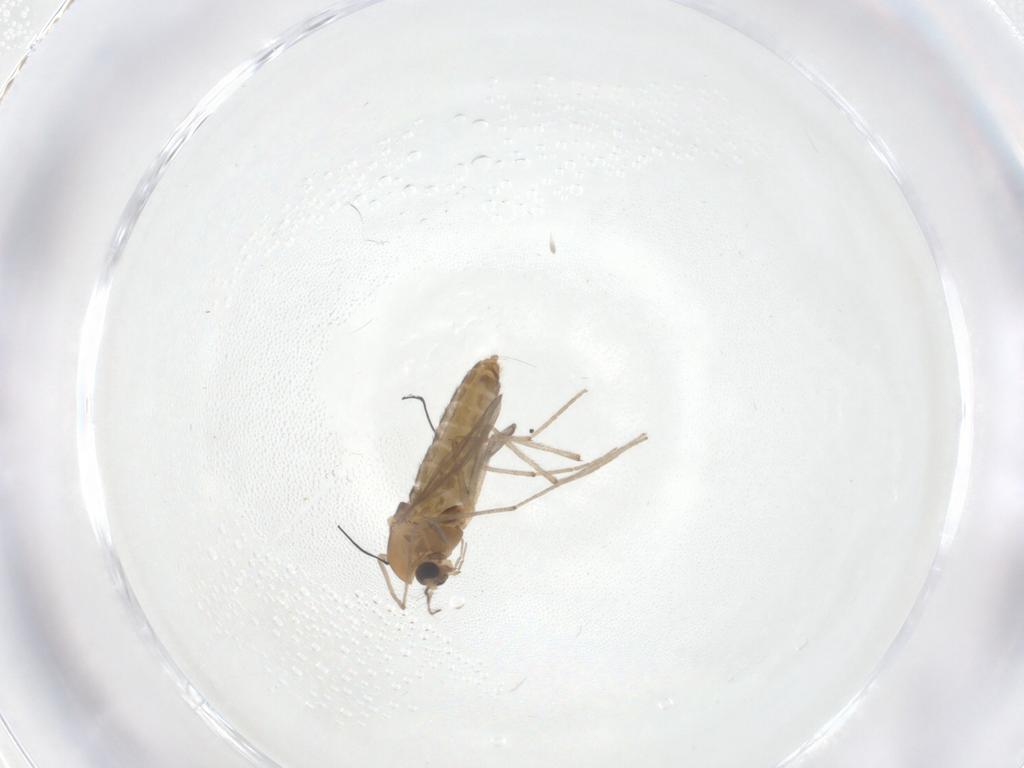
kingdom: Animalia
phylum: Arthropoda
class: Insecta
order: Diptera
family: Chironomidae
